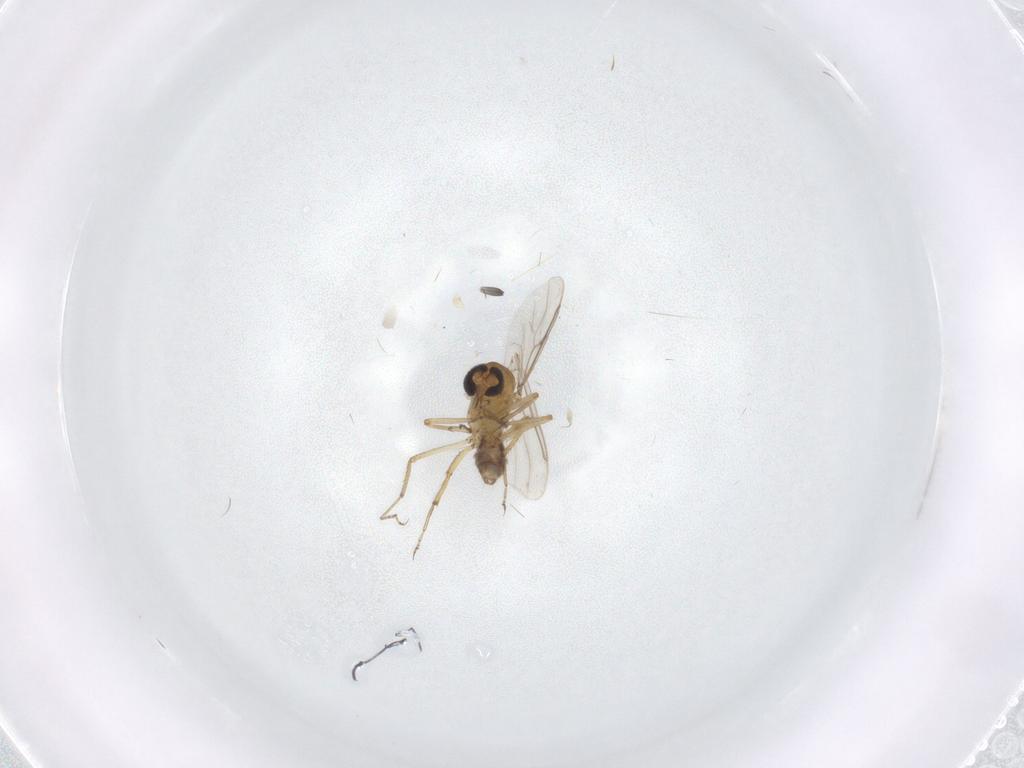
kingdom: Animalia
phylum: Arthropoda
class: Insecta
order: Diptera
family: Ceratopogonidae
